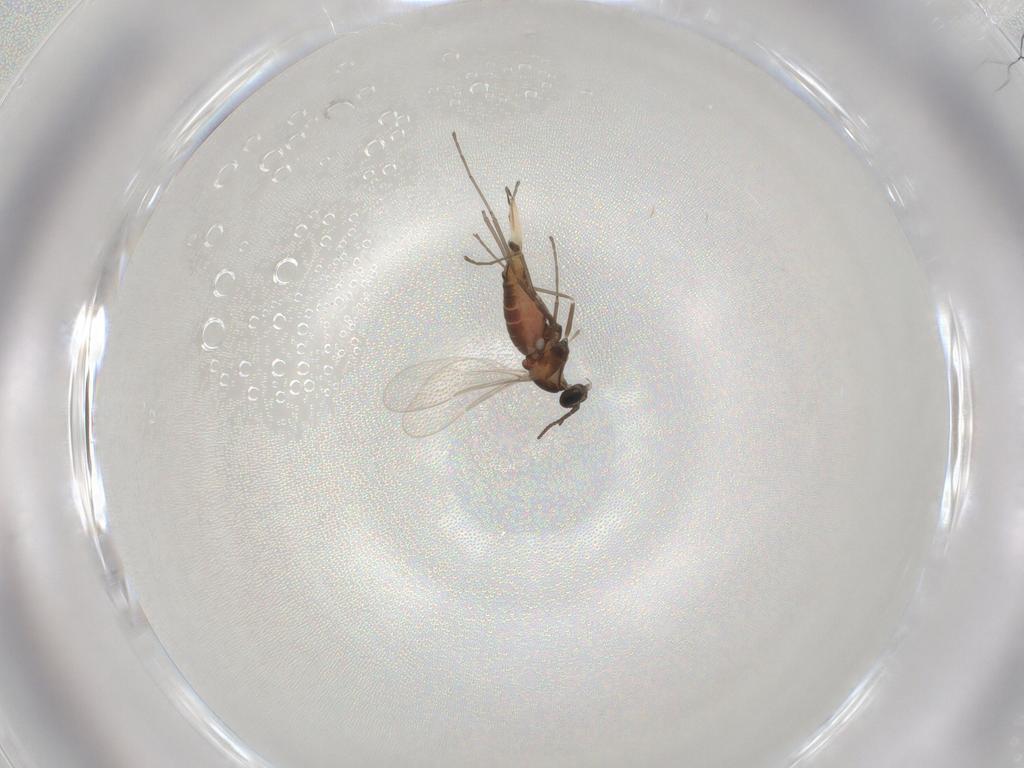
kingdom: Animalia
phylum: Arthropoda
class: Insecta
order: Diptera
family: Cecidomyiidae
